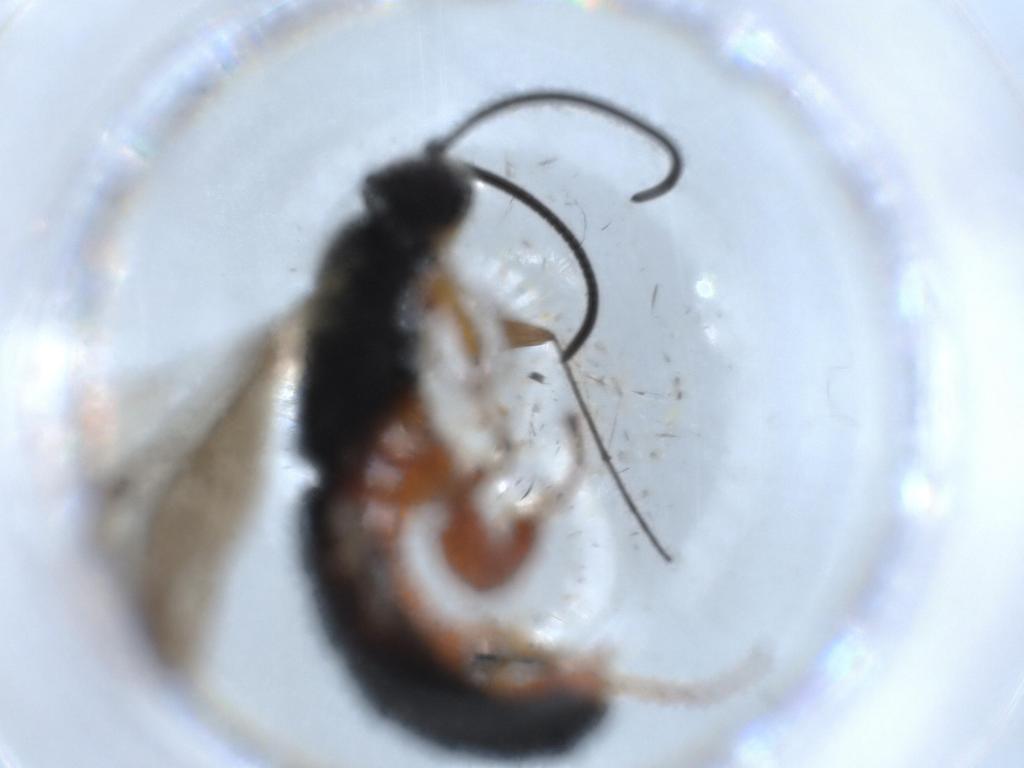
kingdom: Animalia
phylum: Arthropoda
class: Insecta
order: Hymenoptera
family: Ichneumonidae
